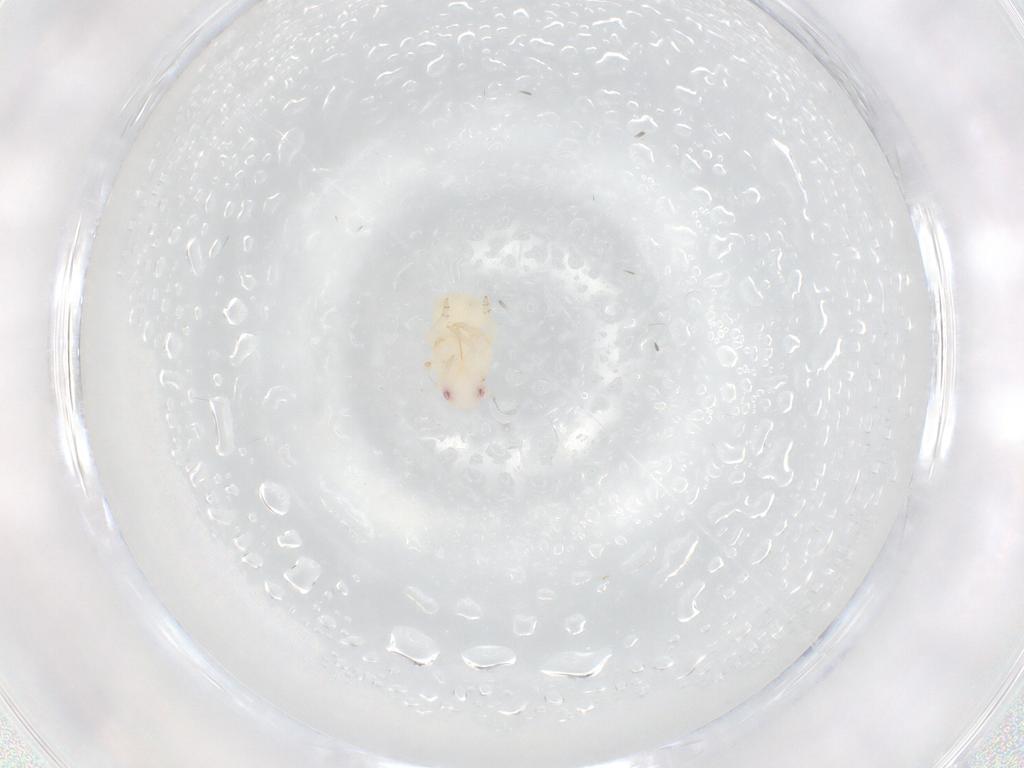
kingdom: Animalia
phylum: Arthropoda
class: Insecta
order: Hemiptera
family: Flatidae
